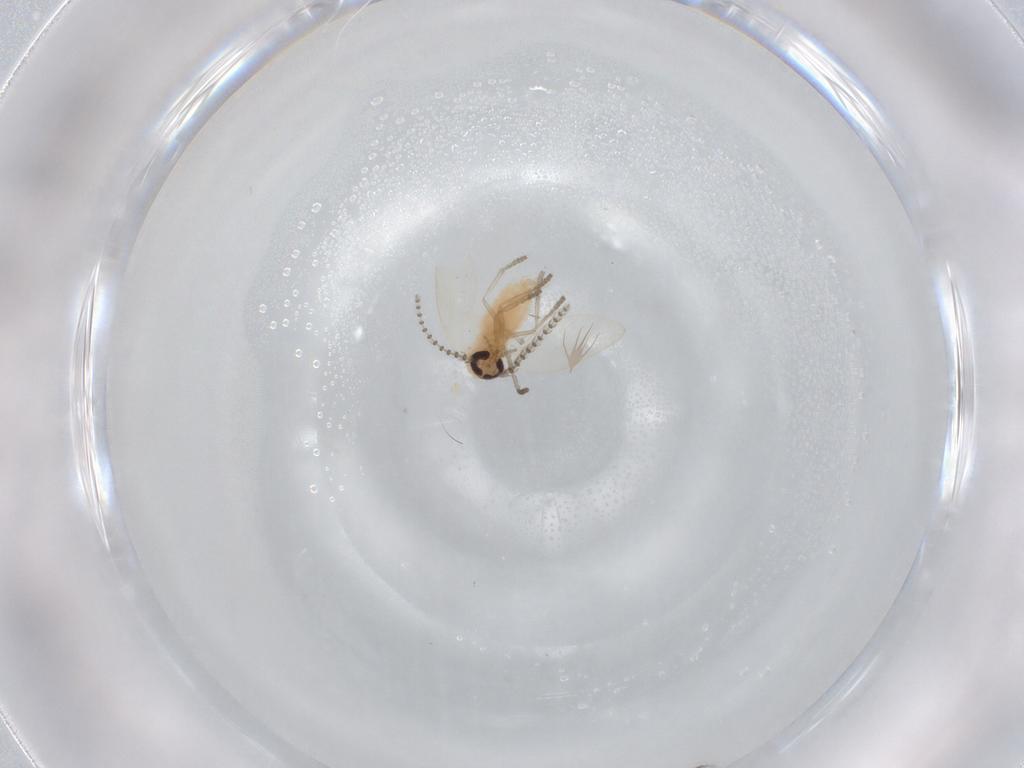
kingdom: Animalia
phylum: Arthropoda
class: Insecta
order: Diptera
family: Psychodidae
